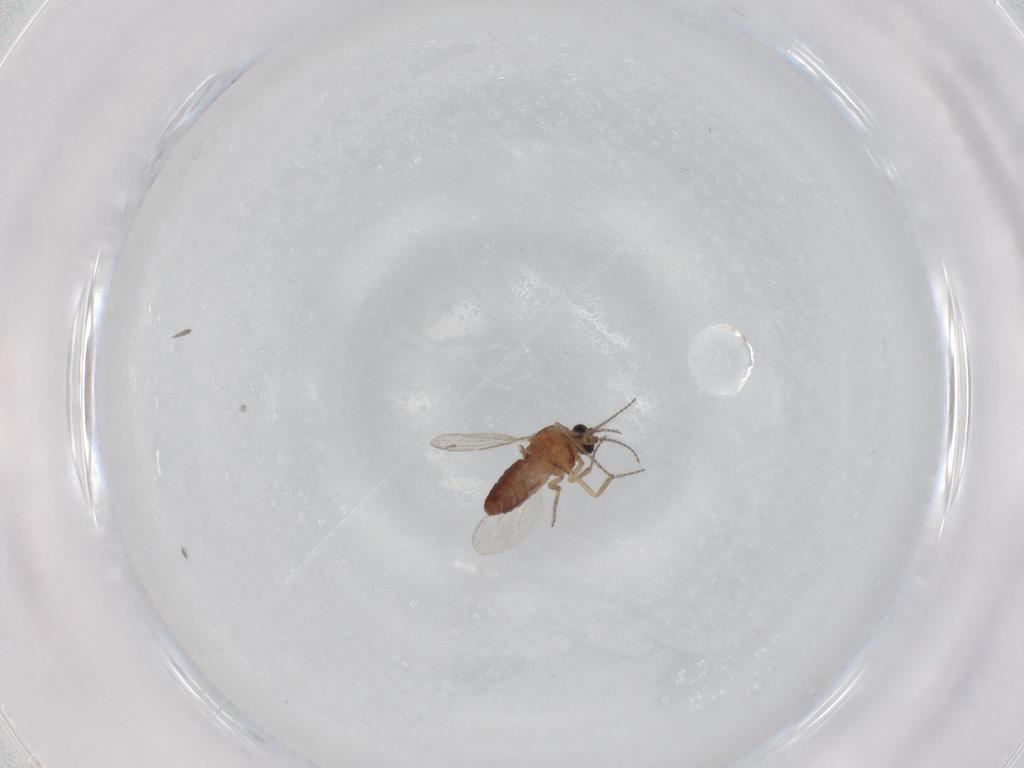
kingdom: Animalia
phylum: Arthropoda
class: Insecta
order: Diptera
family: Ceratopogonidae
